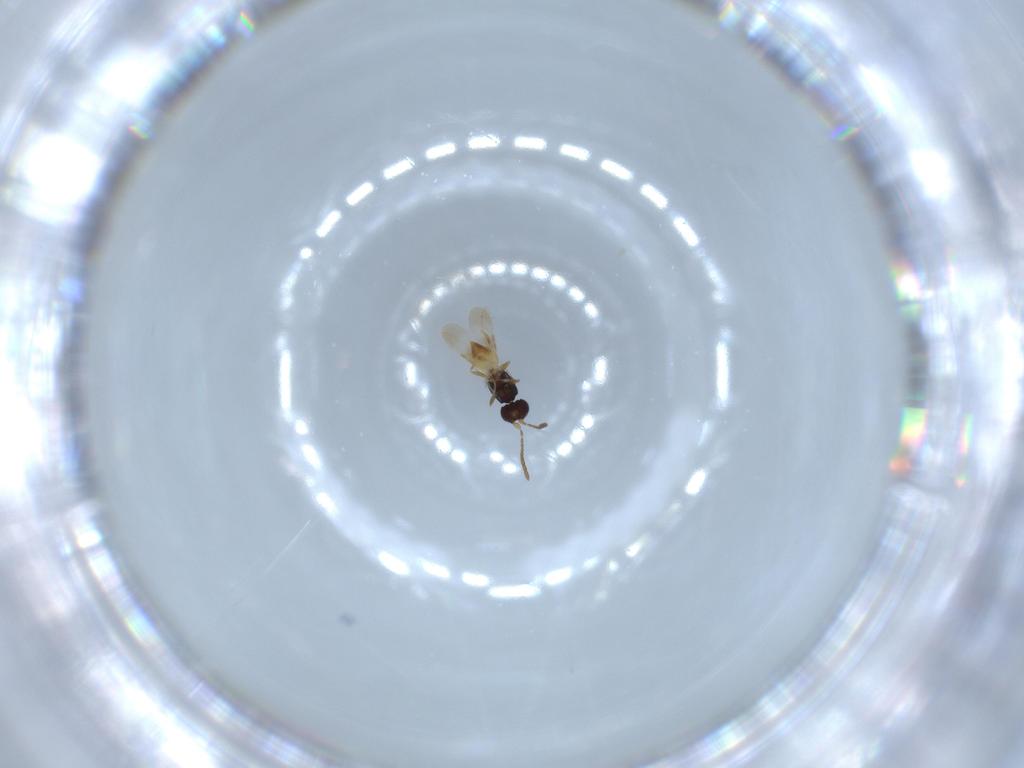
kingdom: Animalia
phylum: Arthropoda
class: Insecta
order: Hymenoptera
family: Ceraphronidae
